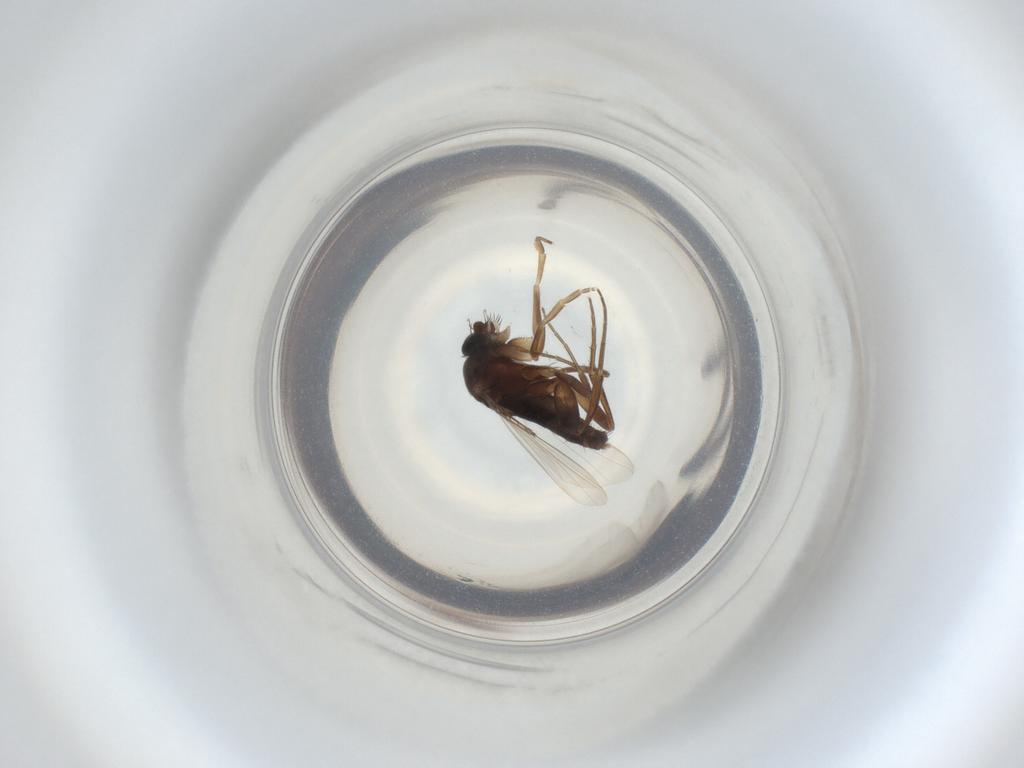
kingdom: Animalia
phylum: Arthropoda
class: Insecta
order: Diptera
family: Phoridae
